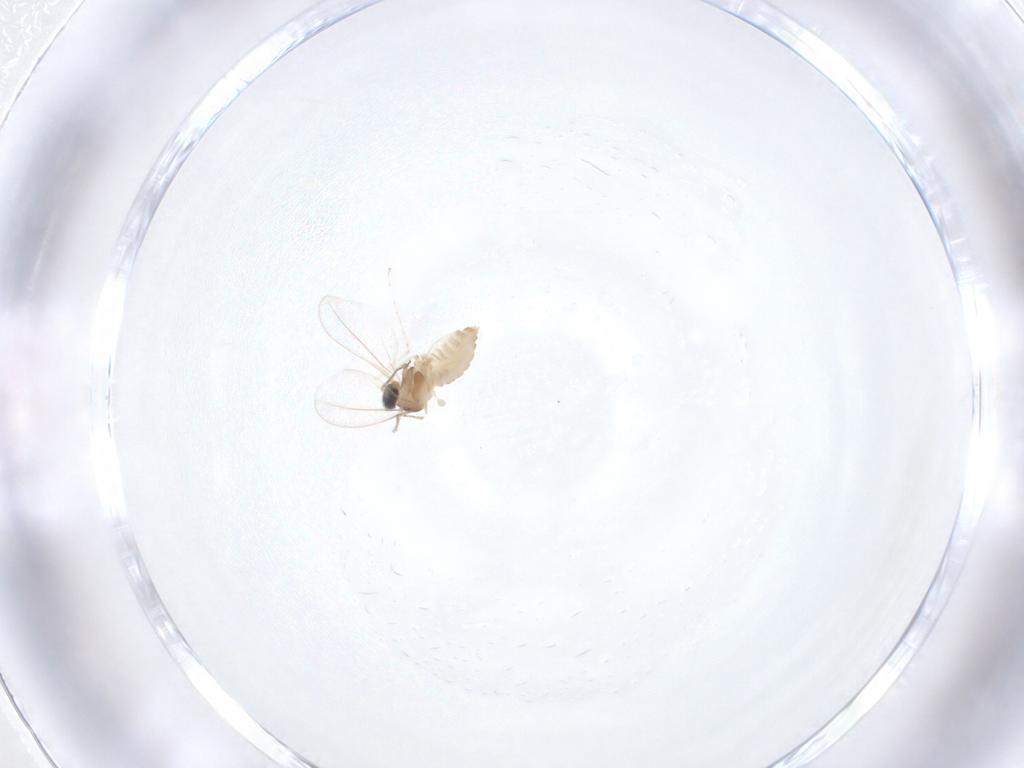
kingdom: Animalia
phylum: Arthropoda
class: Insecta
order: Diptera
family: Cecidomyiidae
